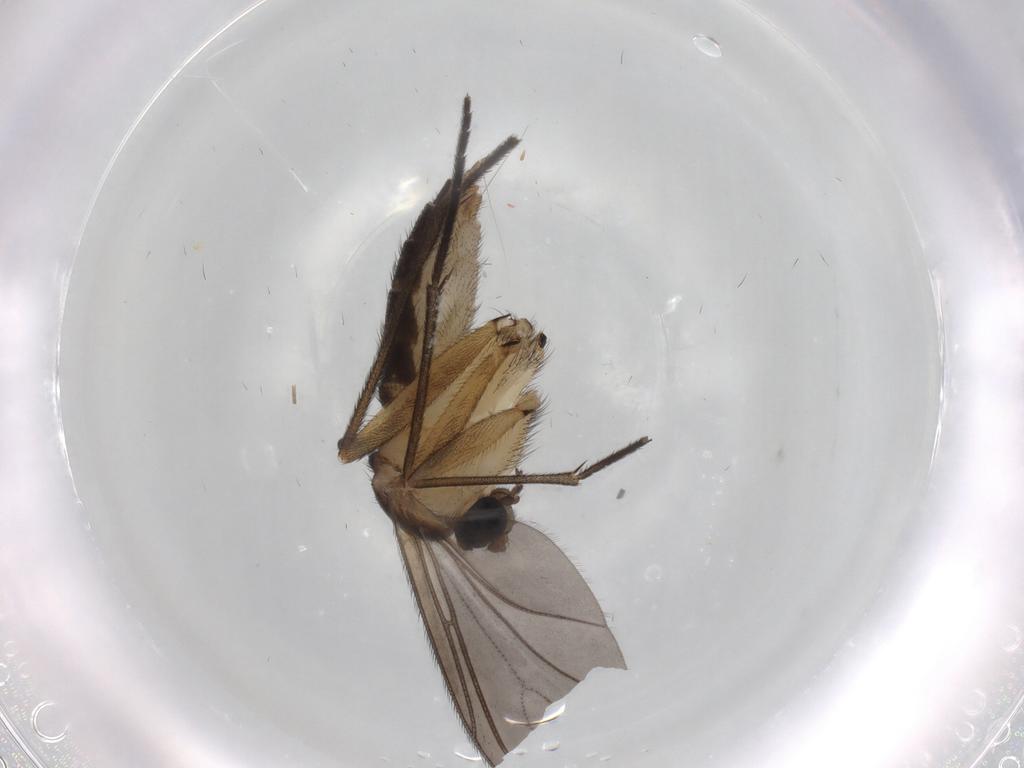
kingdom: Animalia
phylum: Arthropoda
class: Insecta
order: Diptera
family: Sciaridae
